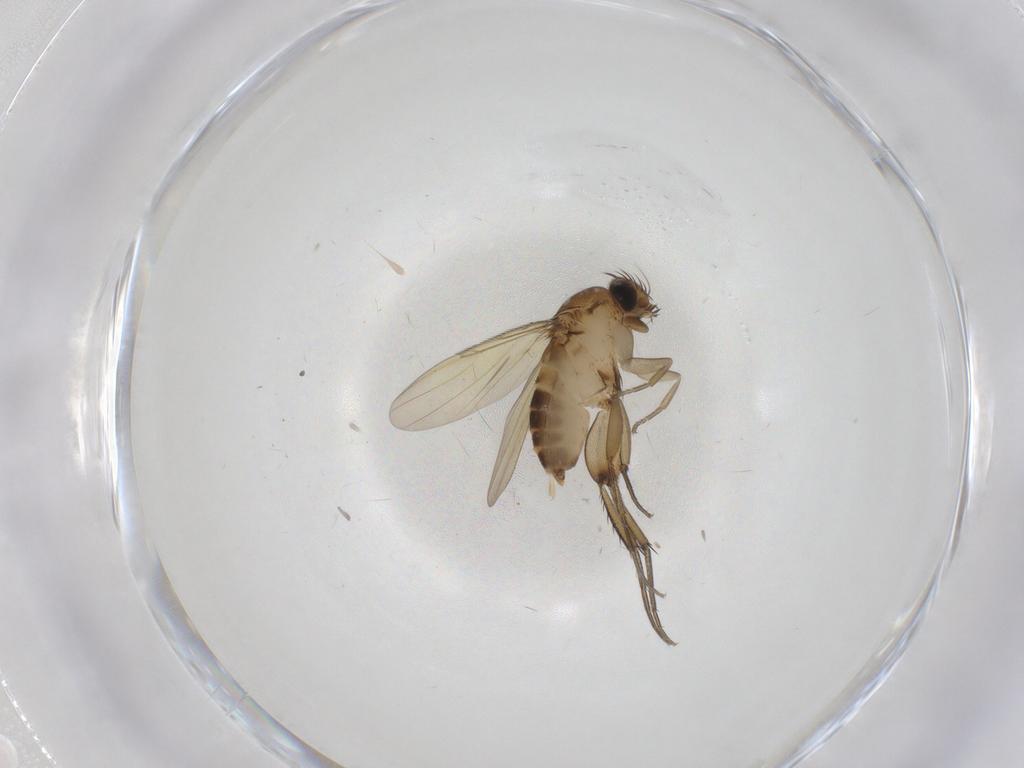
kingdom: Animalia
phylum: Arthropoda
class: Insecta
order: Diptera
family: Phoridae
